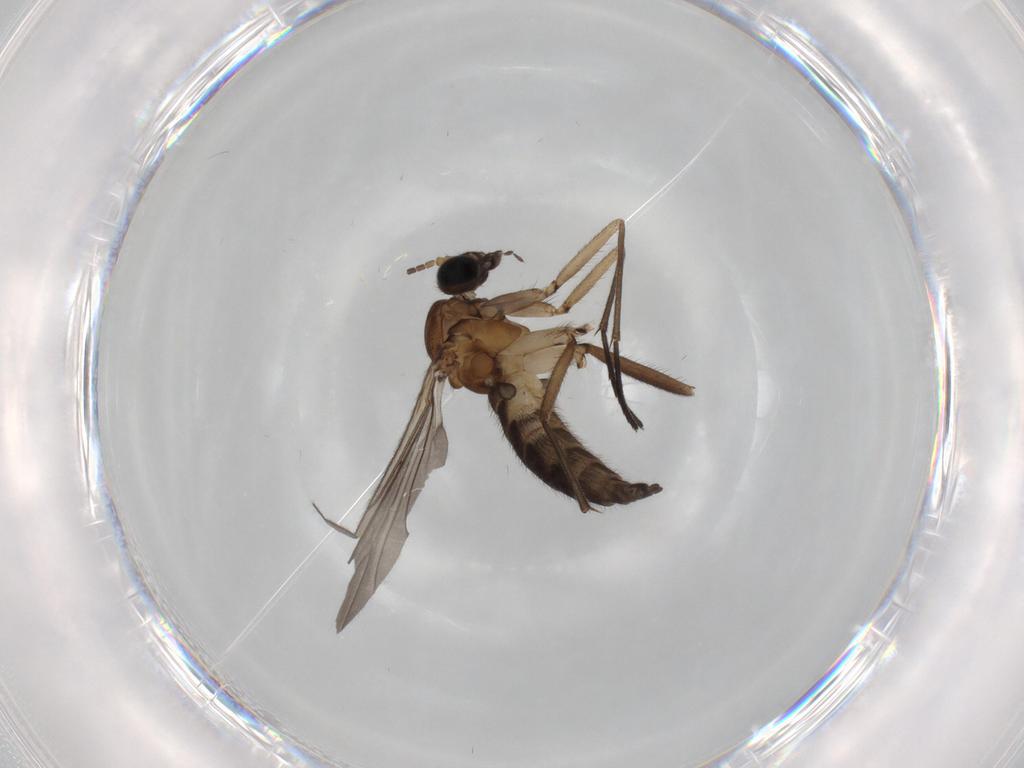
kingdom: Animalia
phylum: Arthropoda
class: Insecta
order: Diptera
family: Sciaridae
